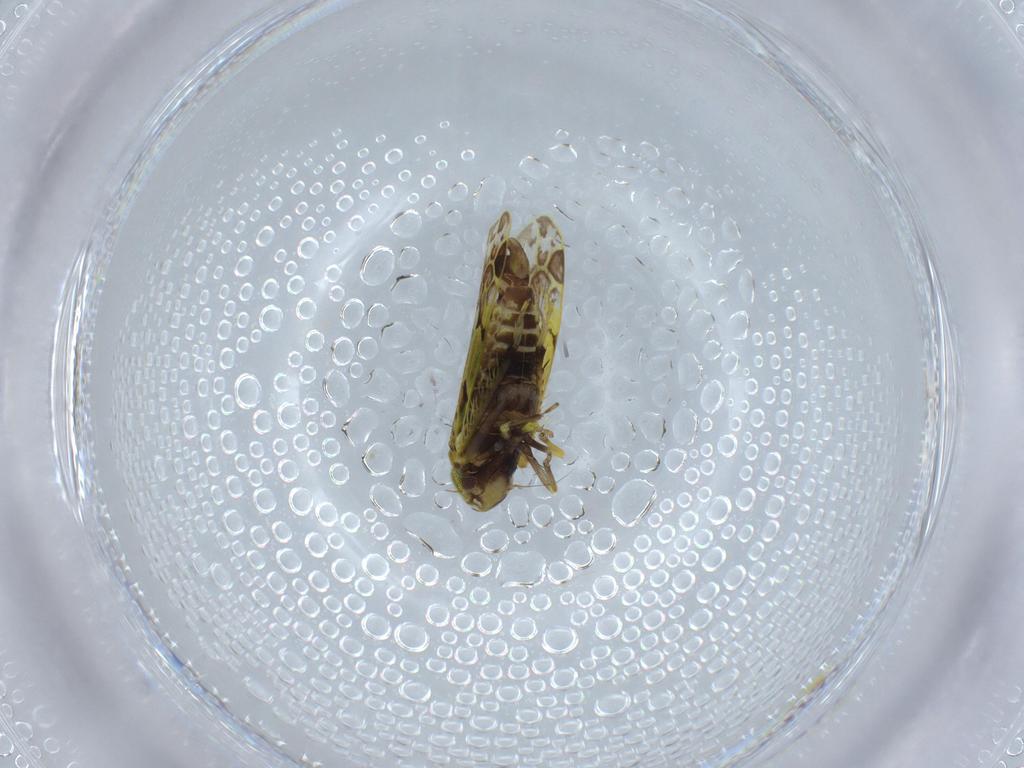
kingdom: Animalia
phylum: Arthropoda
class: Insecta
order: Hemiptera
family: Cicadellidae
